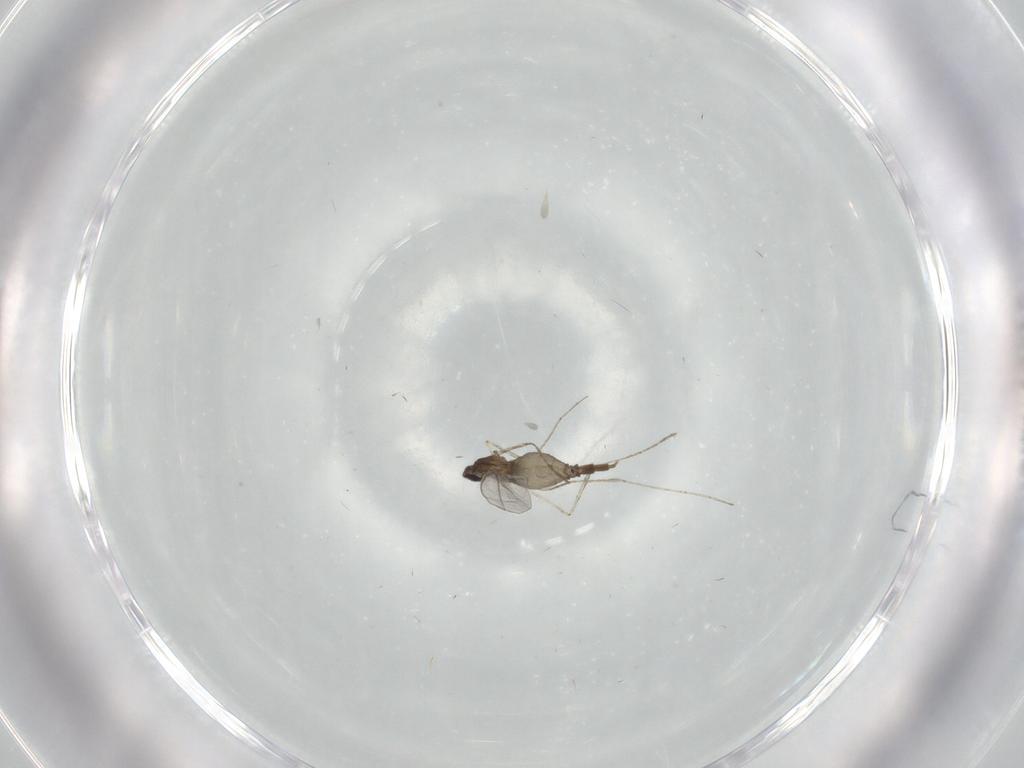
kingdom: Animalia
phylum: Arthropoda
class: Insecta
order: Diptera
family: Cecidomyiidae
